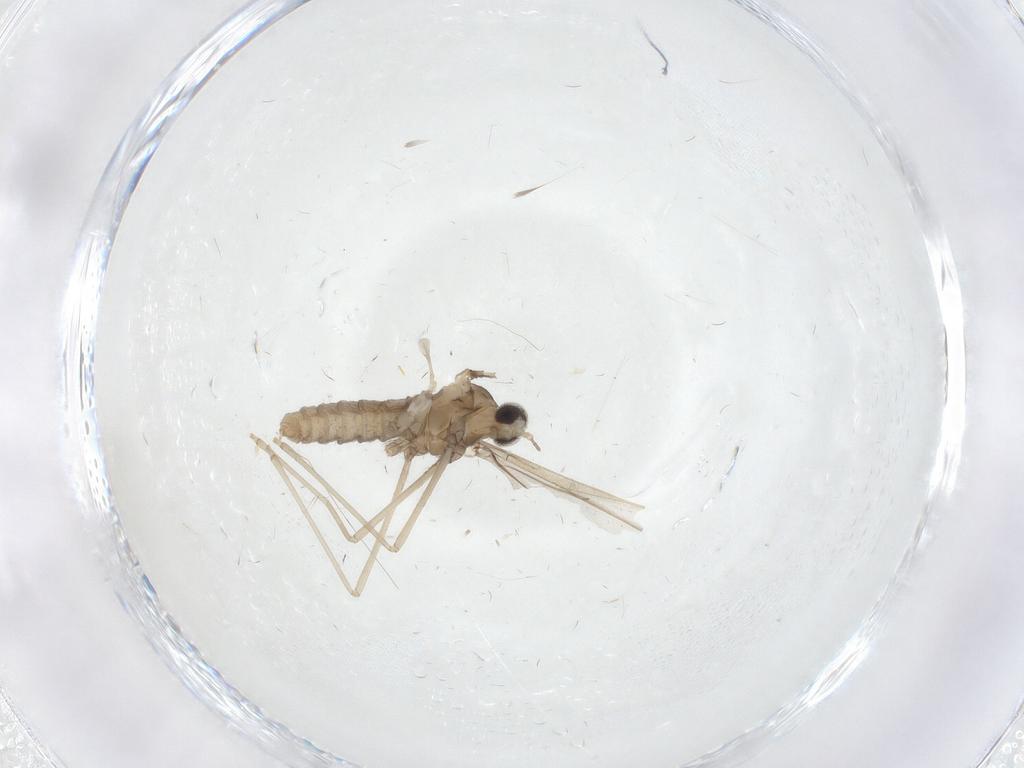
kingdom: Animalia
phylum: Arthropoda
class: Insecta
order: Diptera
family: Cecidomyiidae
